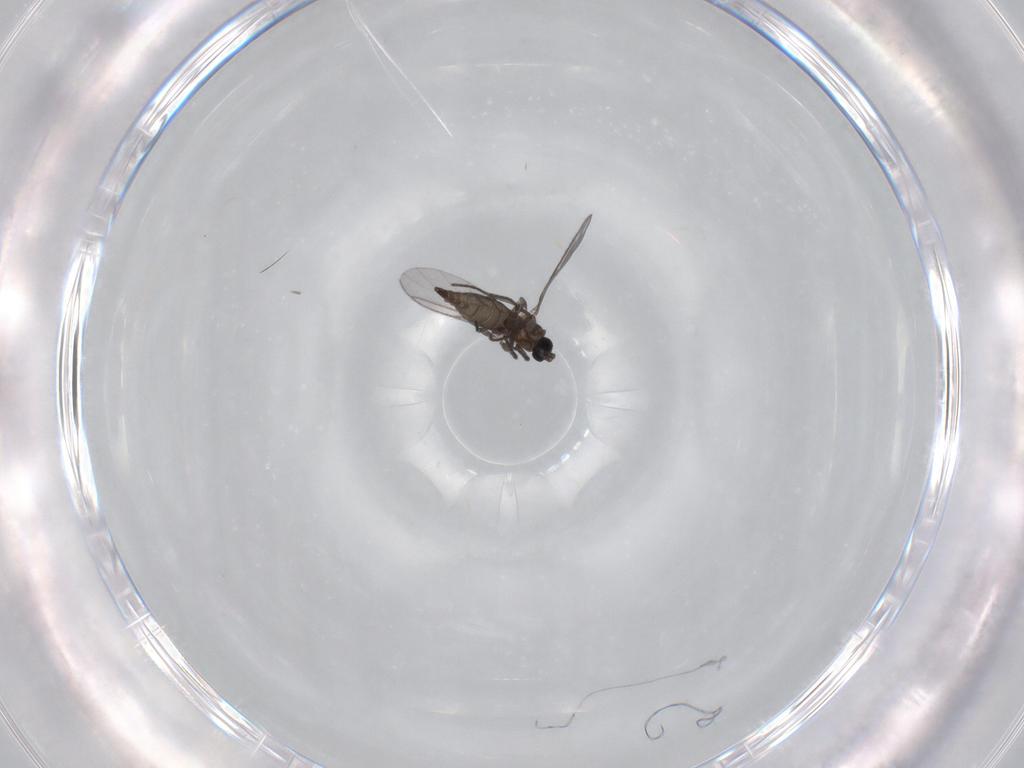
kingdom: Animalia
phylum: Arthropoda
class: Insecta
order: Diptera
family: Sciaridae
